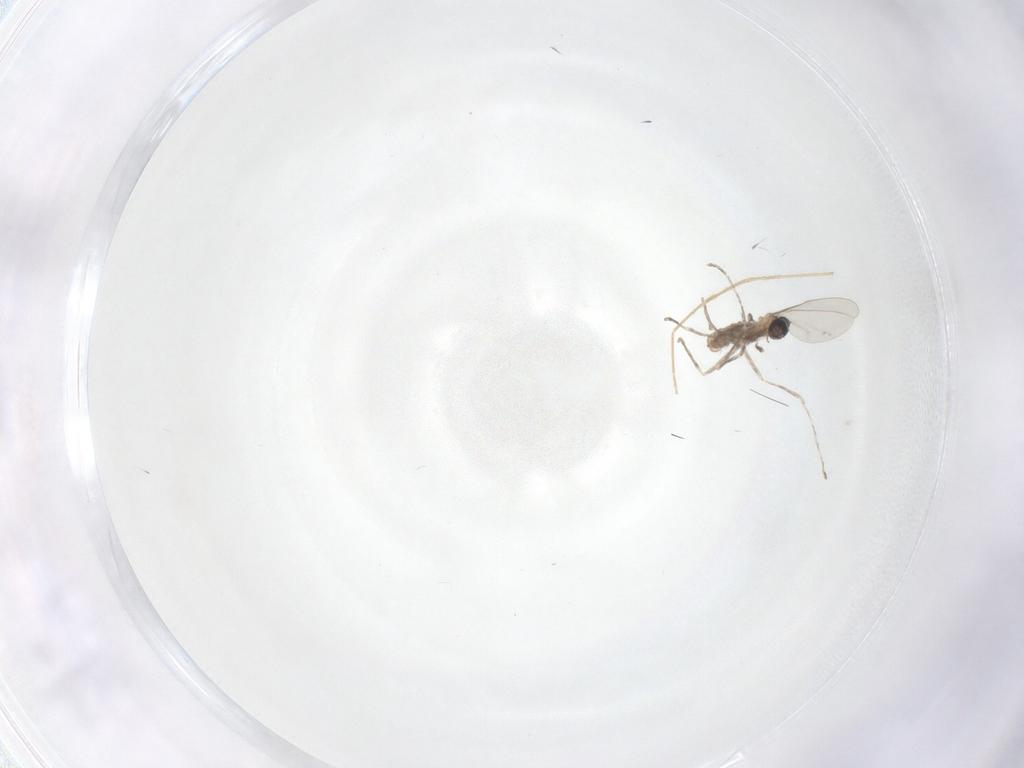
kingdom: Animalia
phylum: Arthropoda
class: Insecta
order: Diptera
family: Cecidomyiidae
